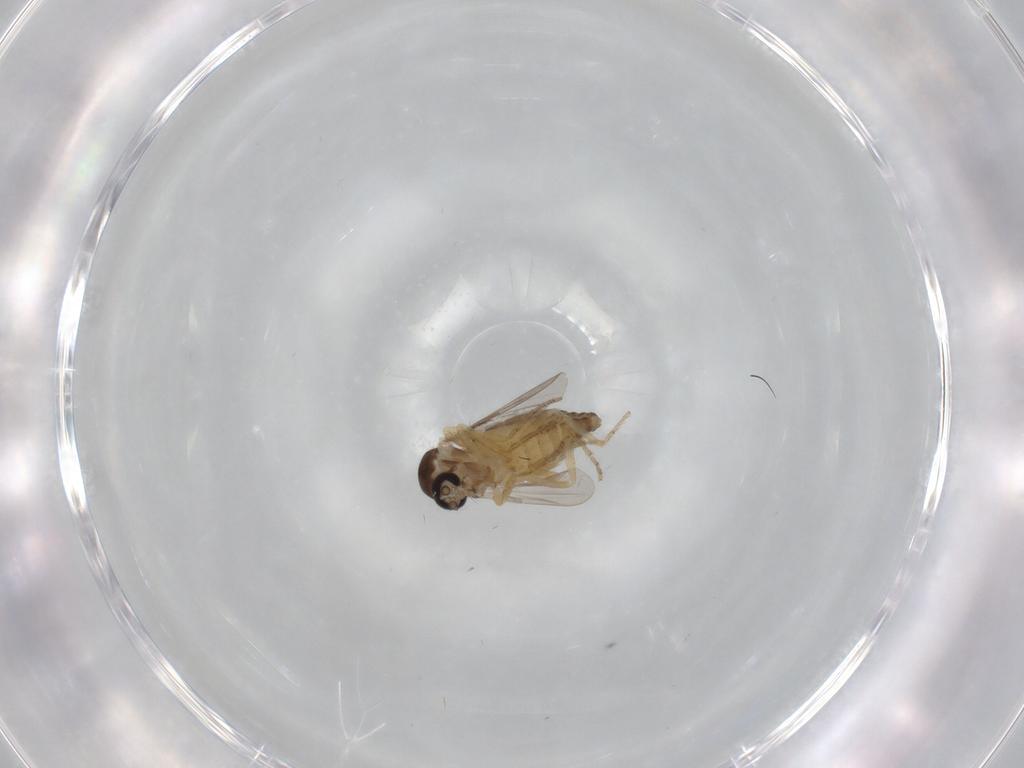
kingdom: Animalia
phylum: Arthropoda
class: Insecta
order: Diptera
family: Ceratopogonidae
